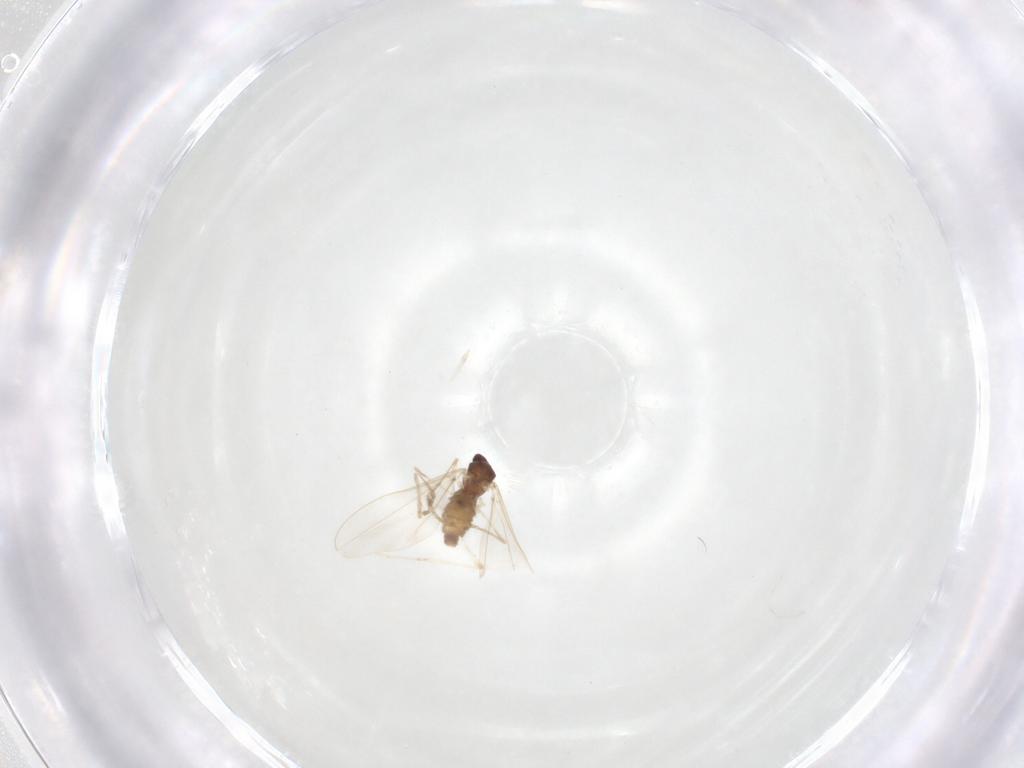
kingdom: Animalia
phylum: Arthropoda
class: Insecta
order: Diptera
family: Cecidomyiidae
